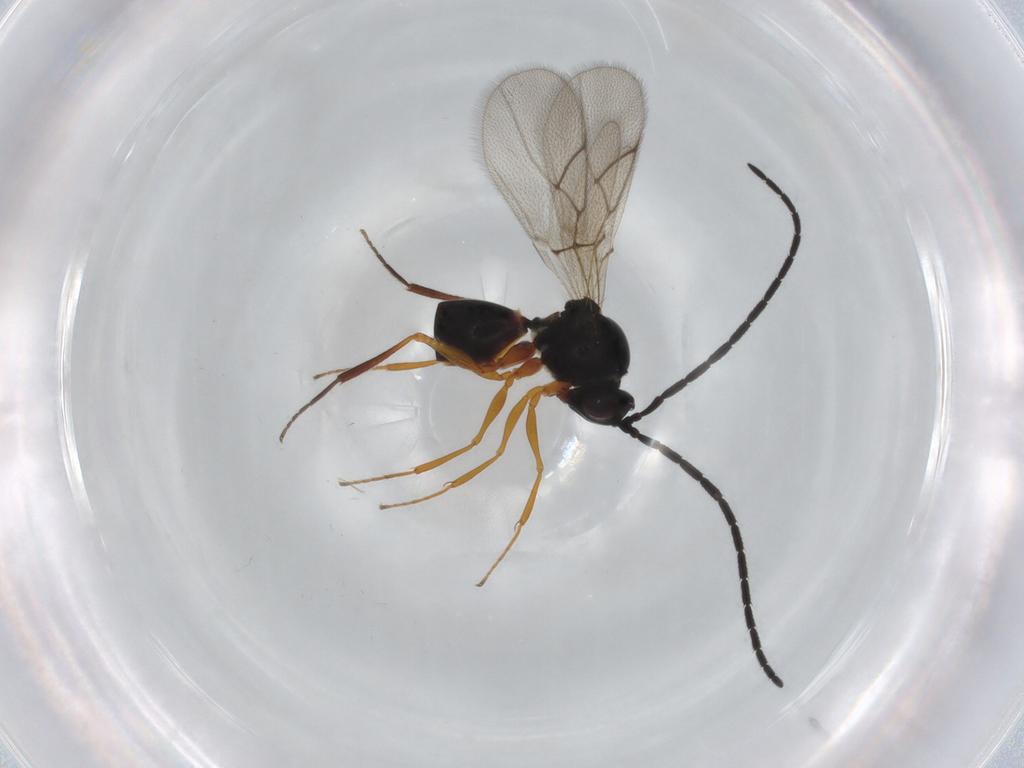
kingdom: Animalia
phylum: Arthropoda
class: Insecta
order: Hymenoptera
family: Figitidae
